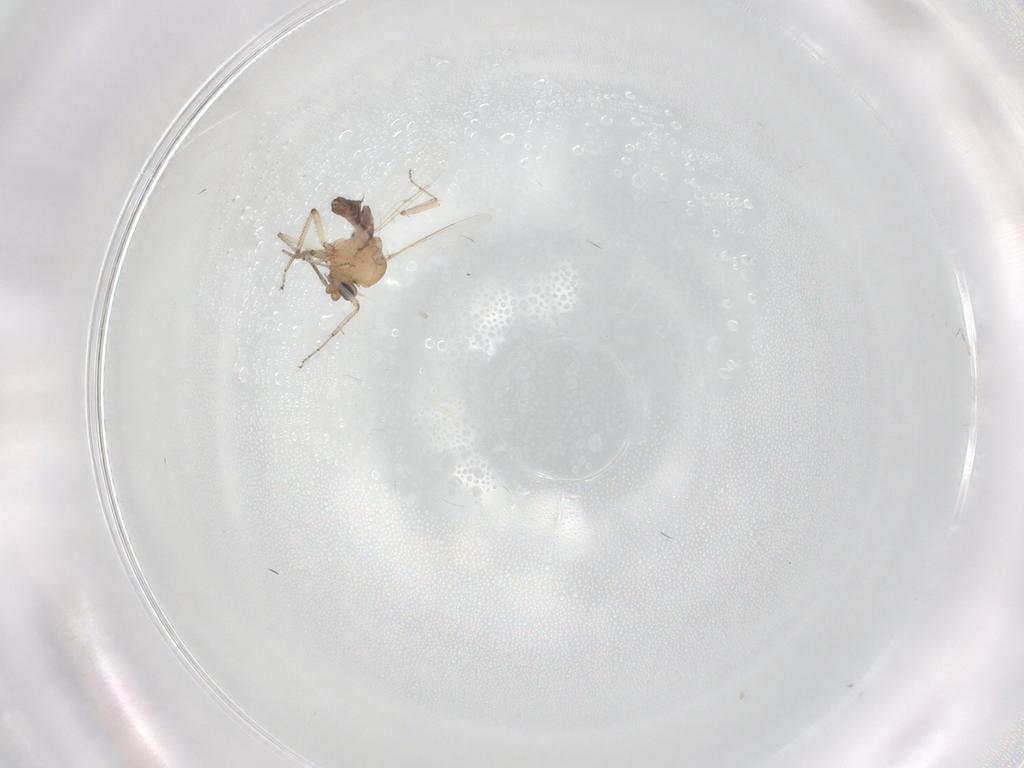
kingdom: Animalia
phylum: Arthropoda
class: Insecta
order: Diptera
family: Ceratopogonidae
